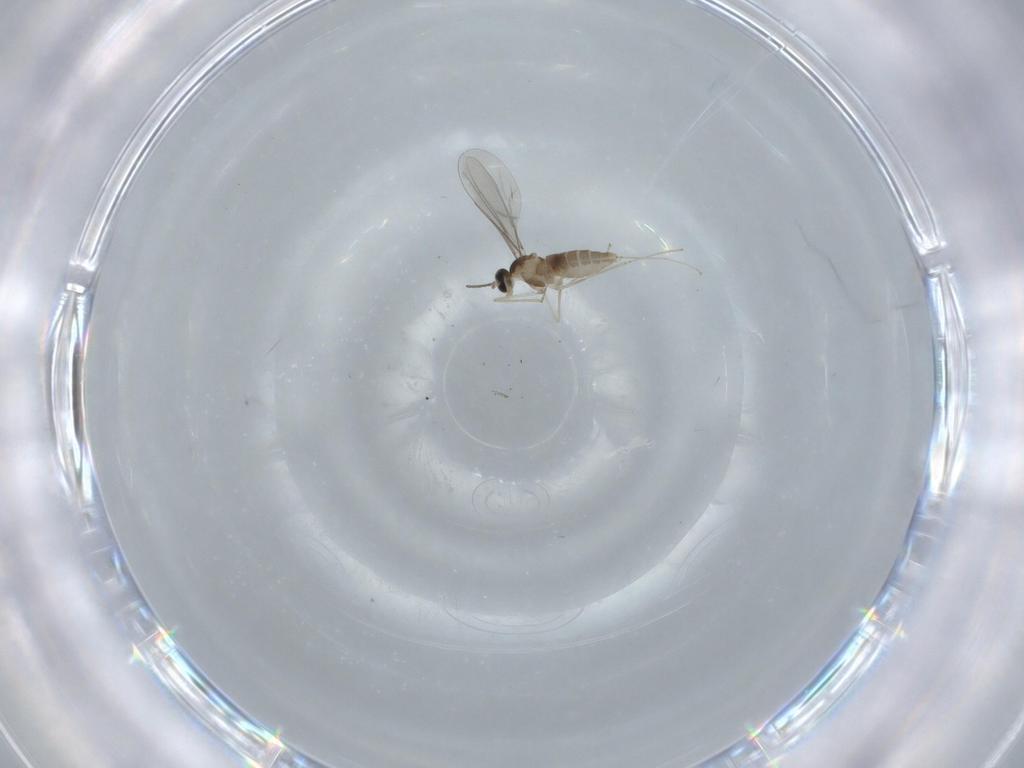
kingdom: Animalia
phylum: Arthropoda
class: Insecta
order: Diptera
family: Cecidomyiidae
